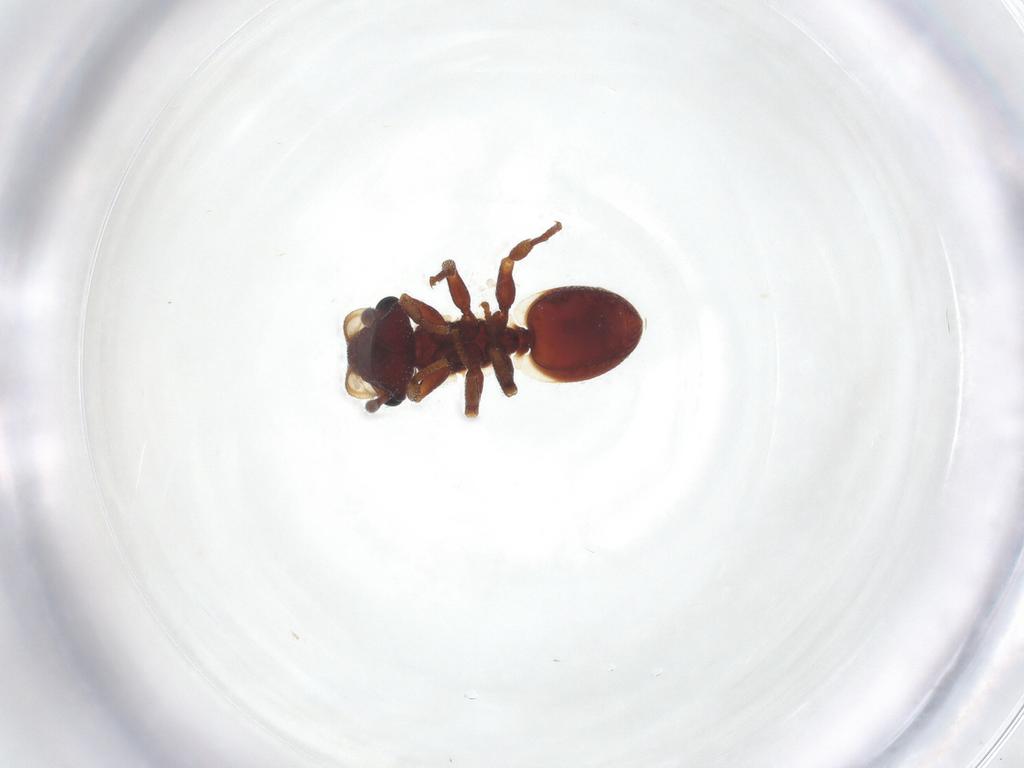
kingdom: Animalia
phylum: Arthropoda
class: Insecta
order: Hymenoptera
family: Formicidae
